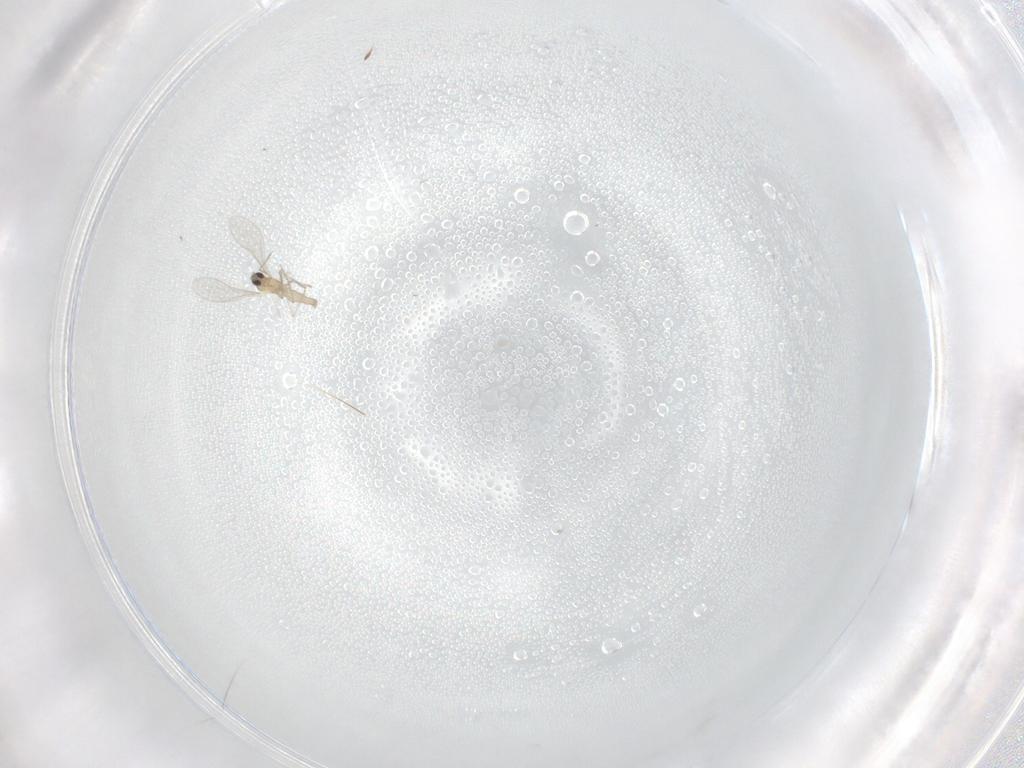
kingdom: Animalia
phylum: Arthropoda
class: Insecta
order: Diptera
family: Cecidomyiidae
